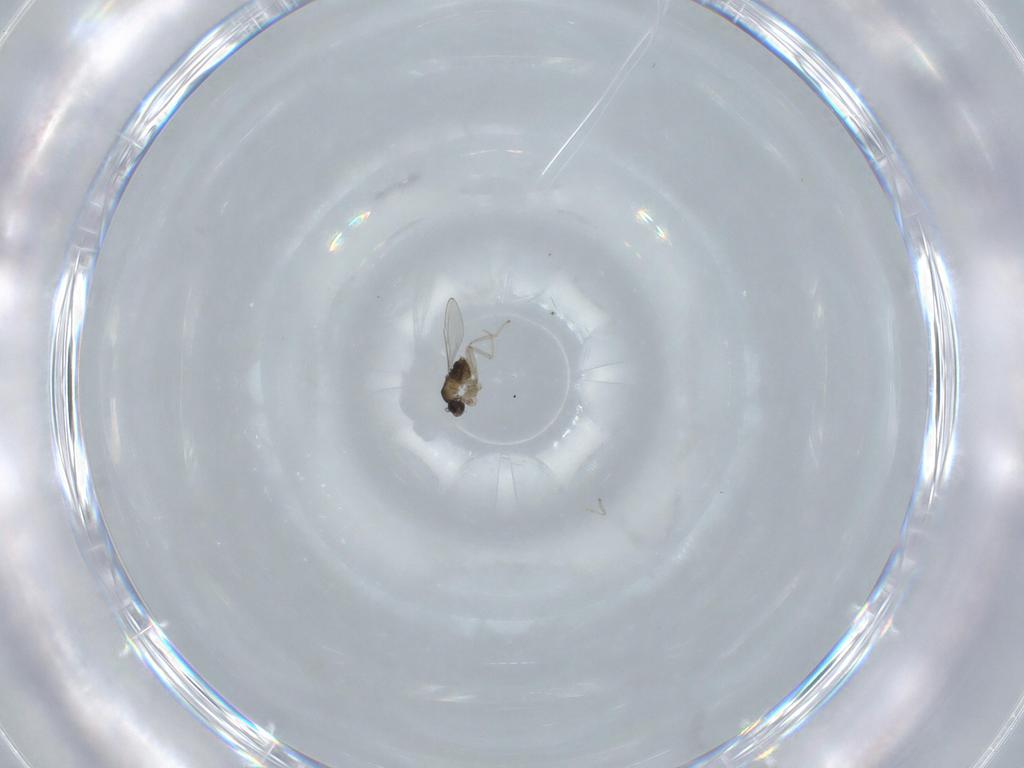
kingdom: Animalia
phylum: Arthropoda
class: Insecta
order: Diptera
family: Cecidomyiidae
